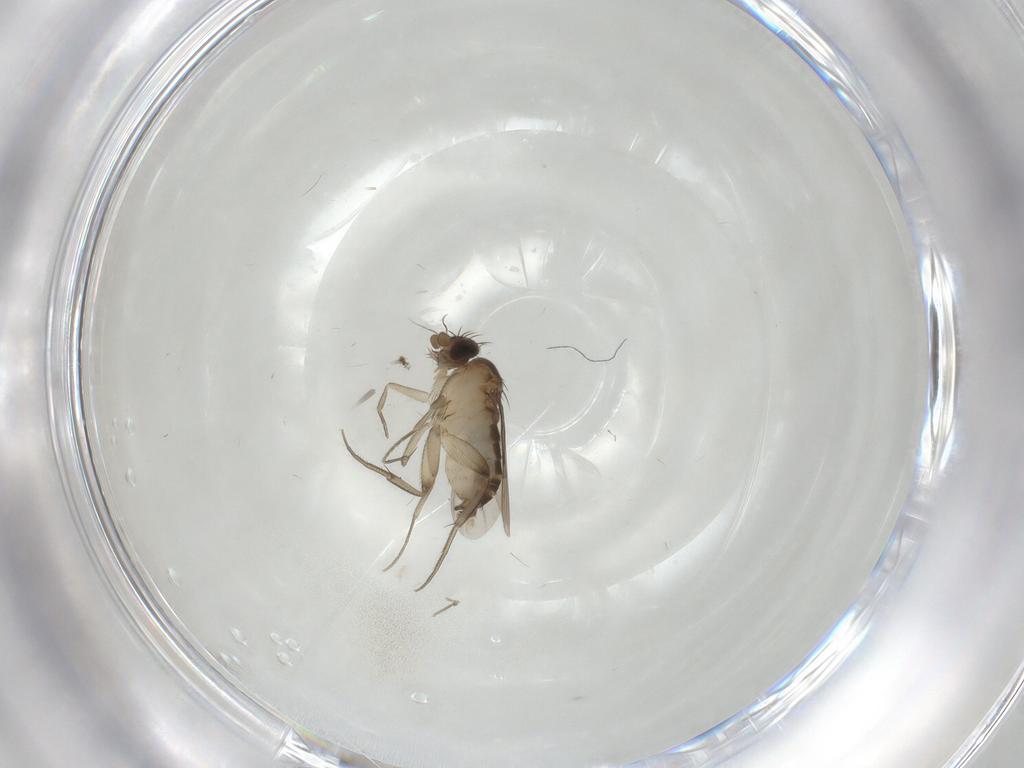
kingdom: Animalia
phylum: Arthropoda
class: Insecta
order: Diptera
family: Phoridae
